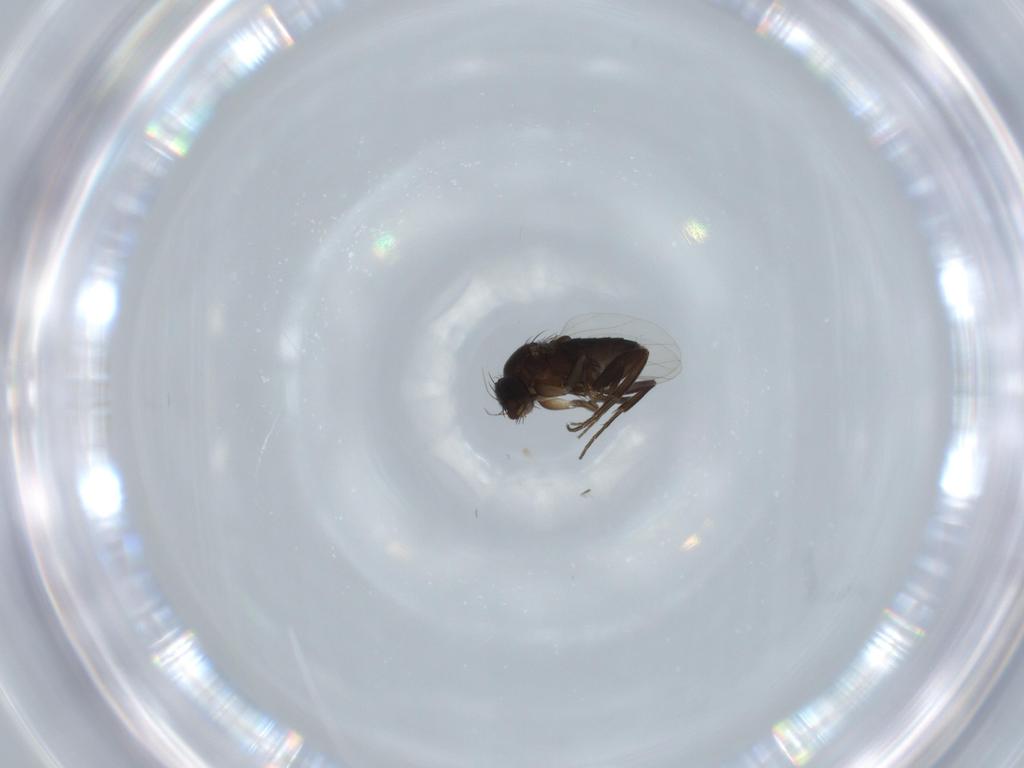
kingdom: Animalia
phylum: Arthropoda
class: Insecta
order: Diptera
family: Phoridae
